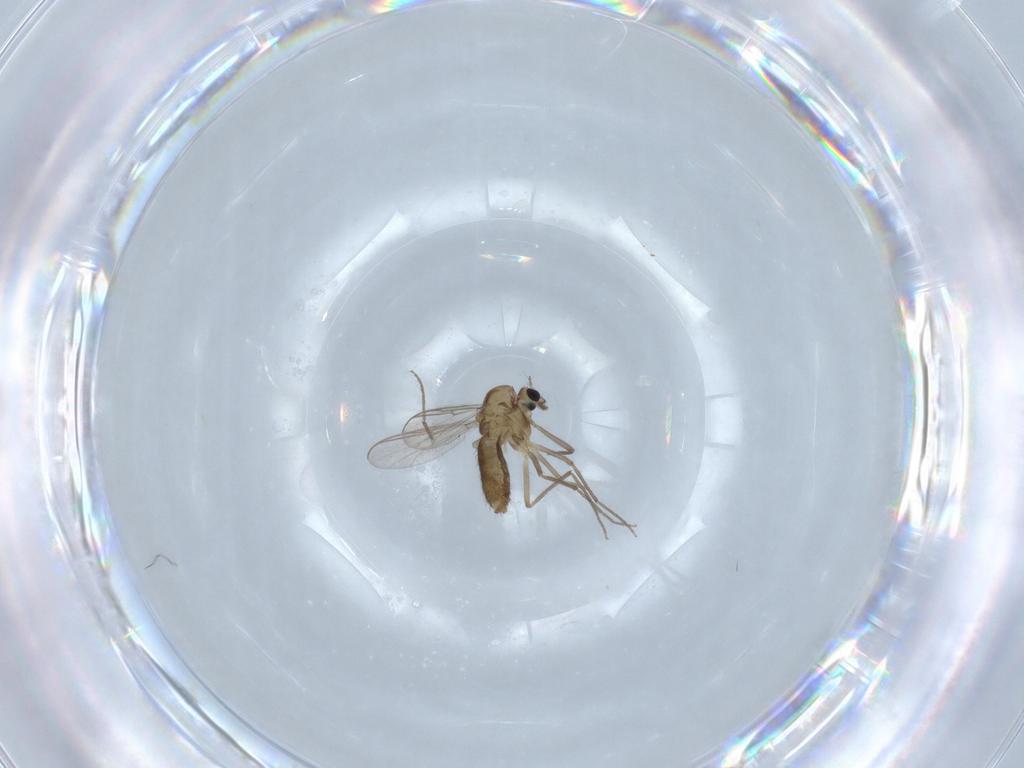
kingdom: Animalia
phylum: Arthropoda
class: Insecta
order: Diptera
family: Chironomidae
